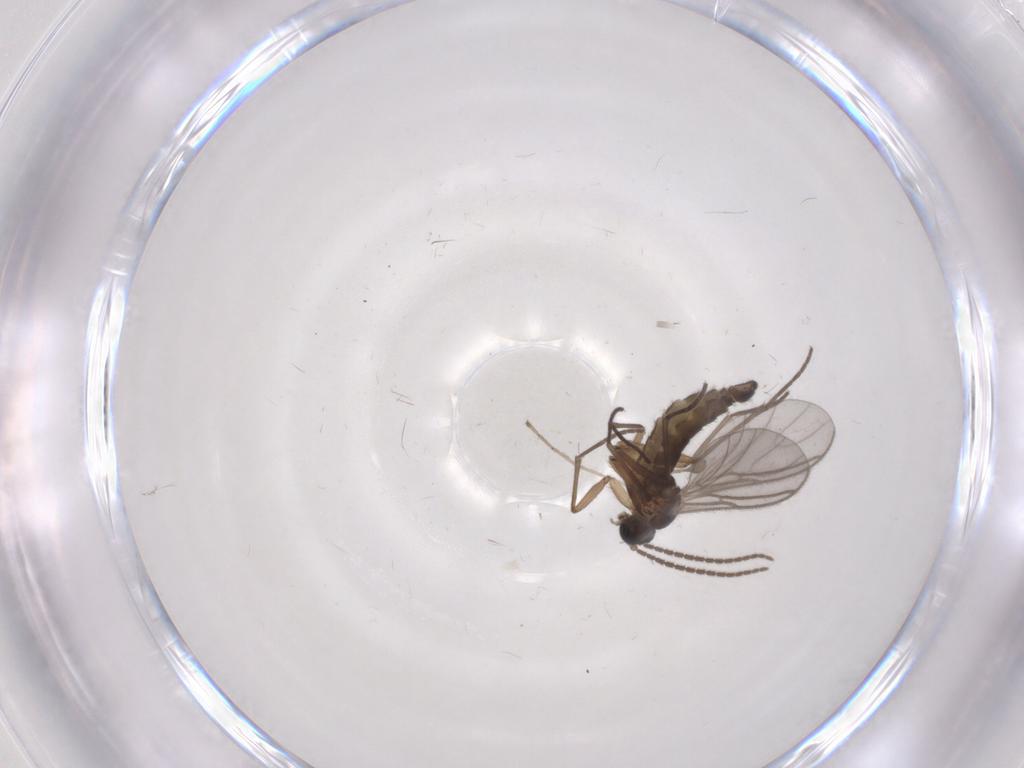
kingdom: Animalia
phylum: Arthropoda
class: Insecta
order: Diptera
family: Cecidomyiidae
